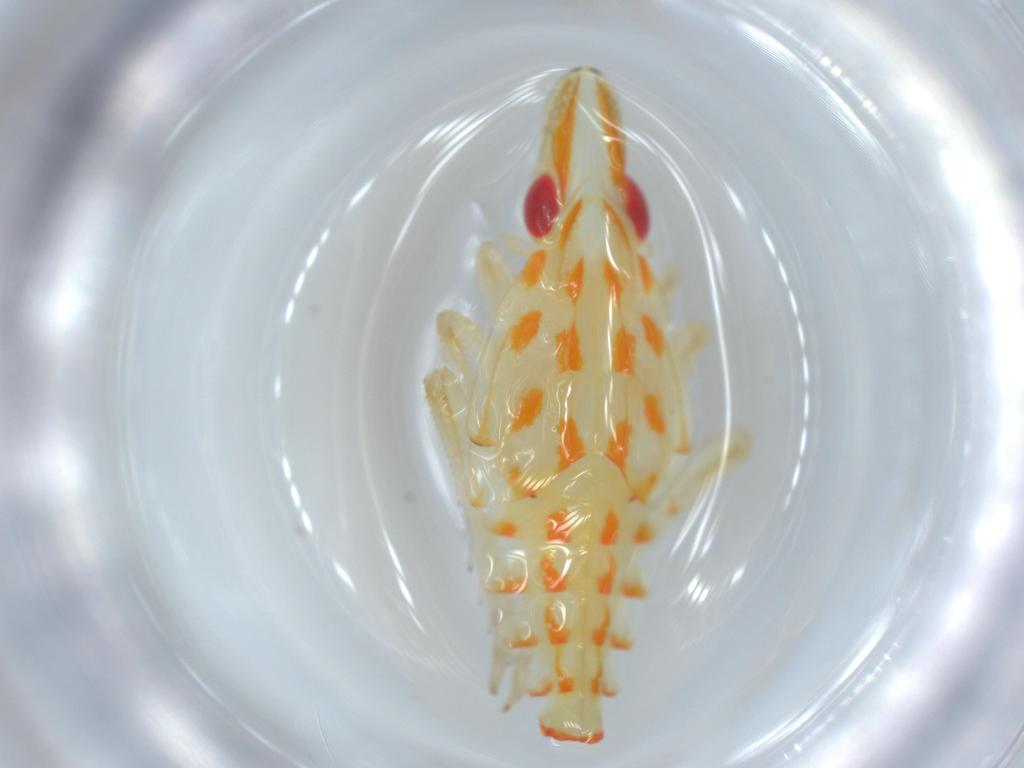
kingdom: Animalia
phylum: Arthropoda
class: Insecta
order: Hemiptera
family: Tropiduchidae
